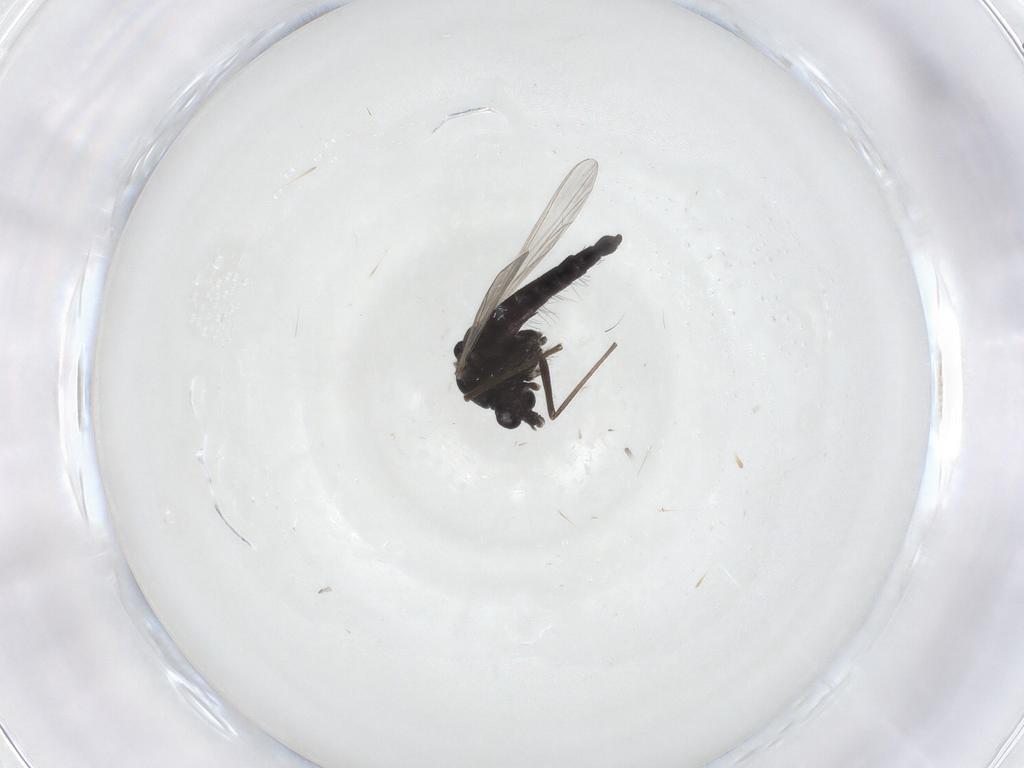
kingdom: Animalia
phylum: Arthropoda
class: Insecta
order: Diptera
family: Chironomidae
